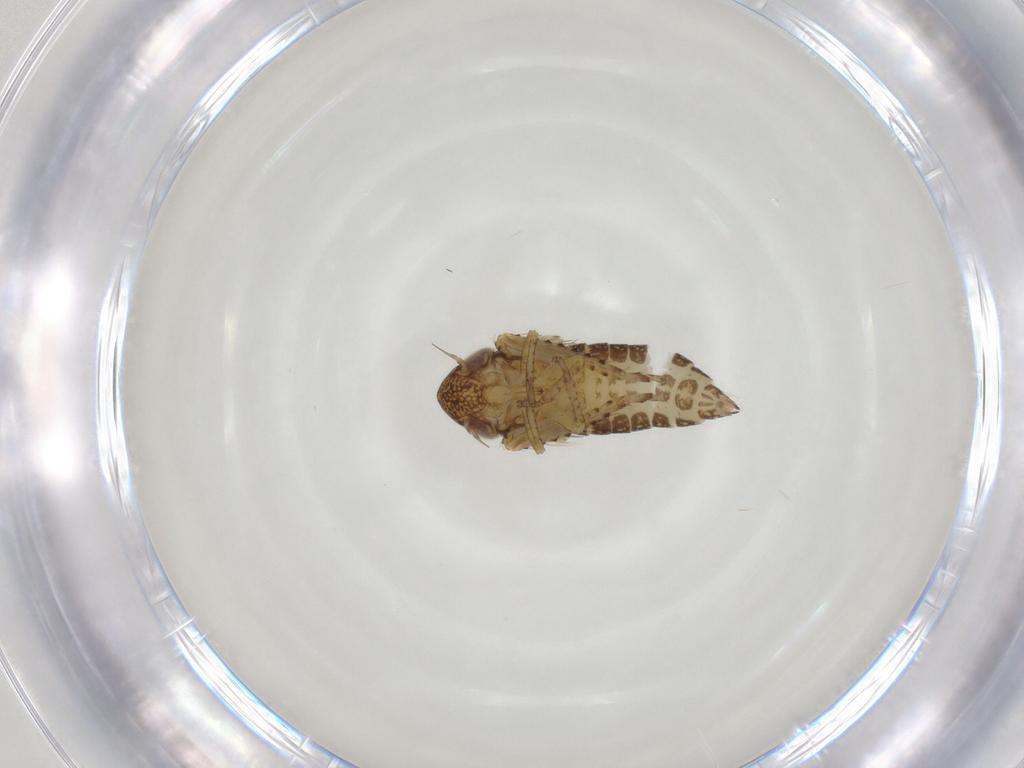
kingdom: Animalia
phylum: Arthropoda
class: Insecta
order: Hemiptera
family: Cicadellidae
